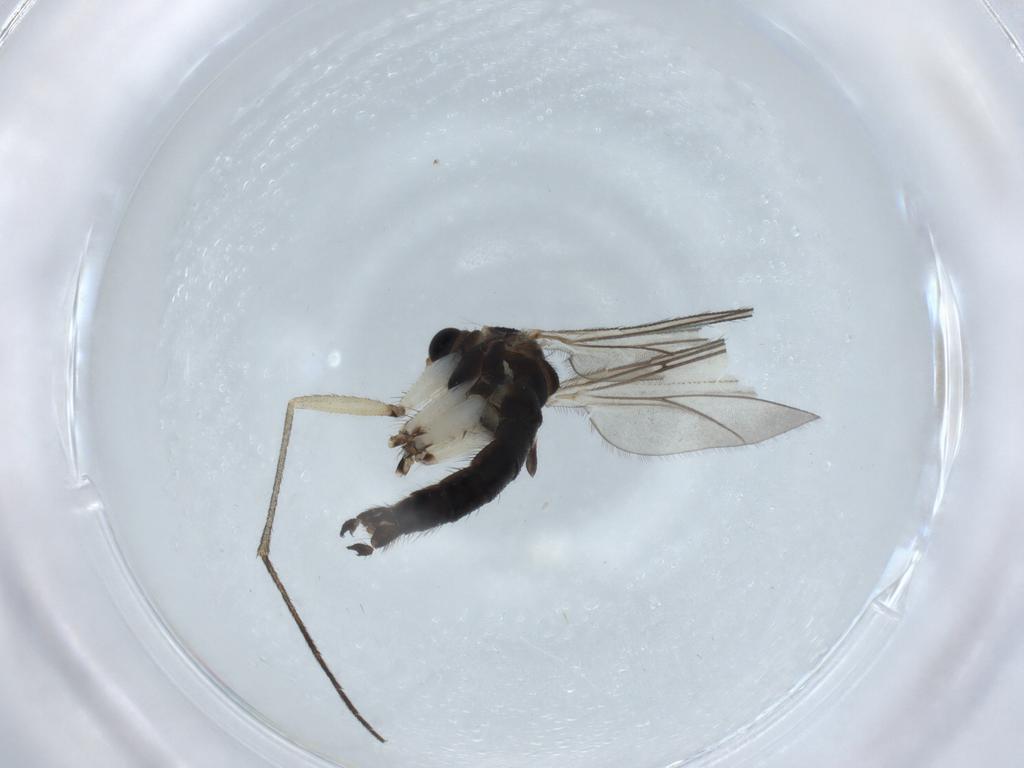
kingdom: Animalia
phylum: Arthropoda
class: Insecta
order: Diptera
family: Sciaridae
